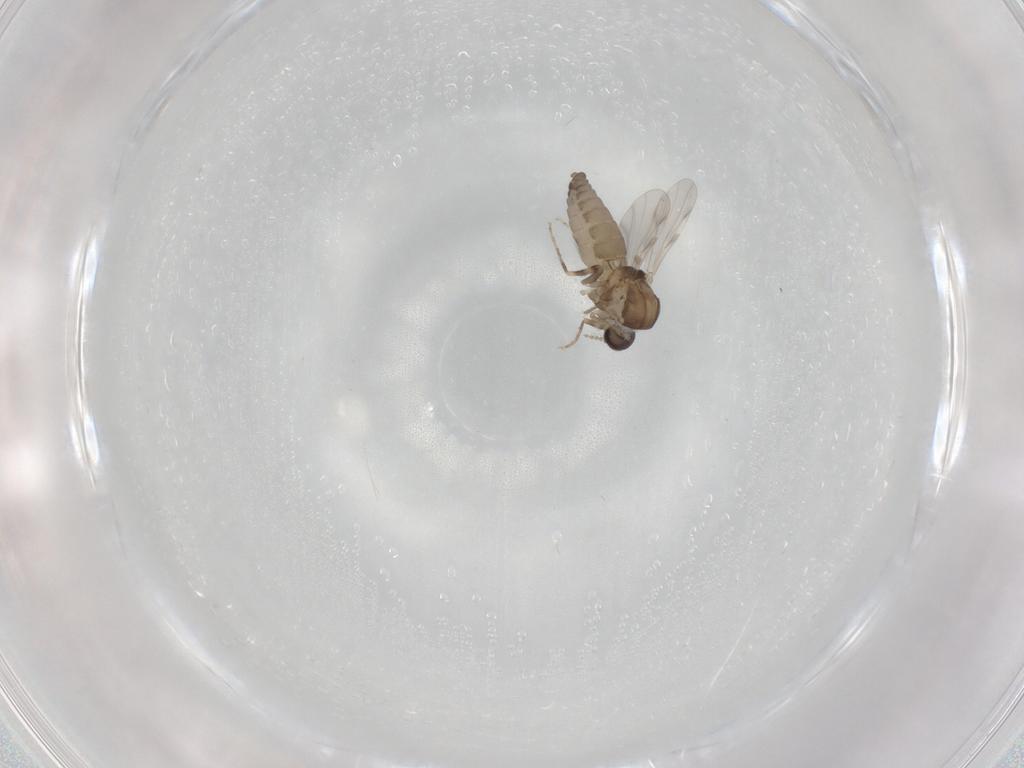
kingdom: Animalia
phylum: Arthropoda
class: Insecta
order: Diptera
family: Ceratopogonidae
